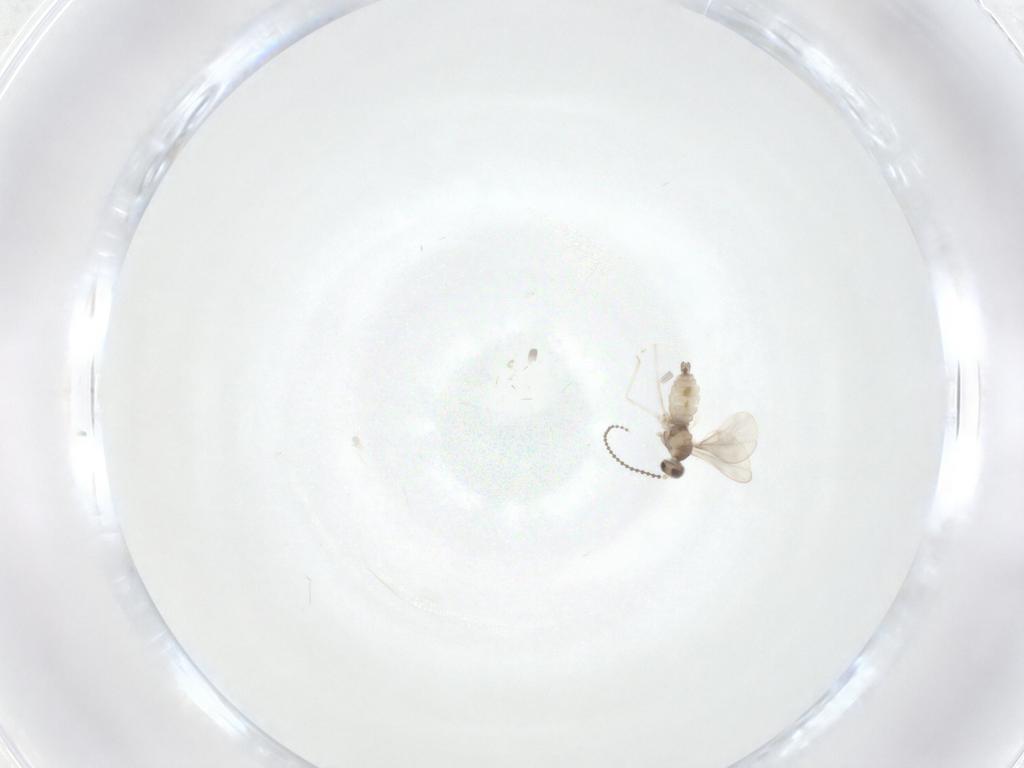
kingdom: Animalia
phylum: Arthropoda
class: Insecta
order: Diptera
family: Cecidomyiidae
